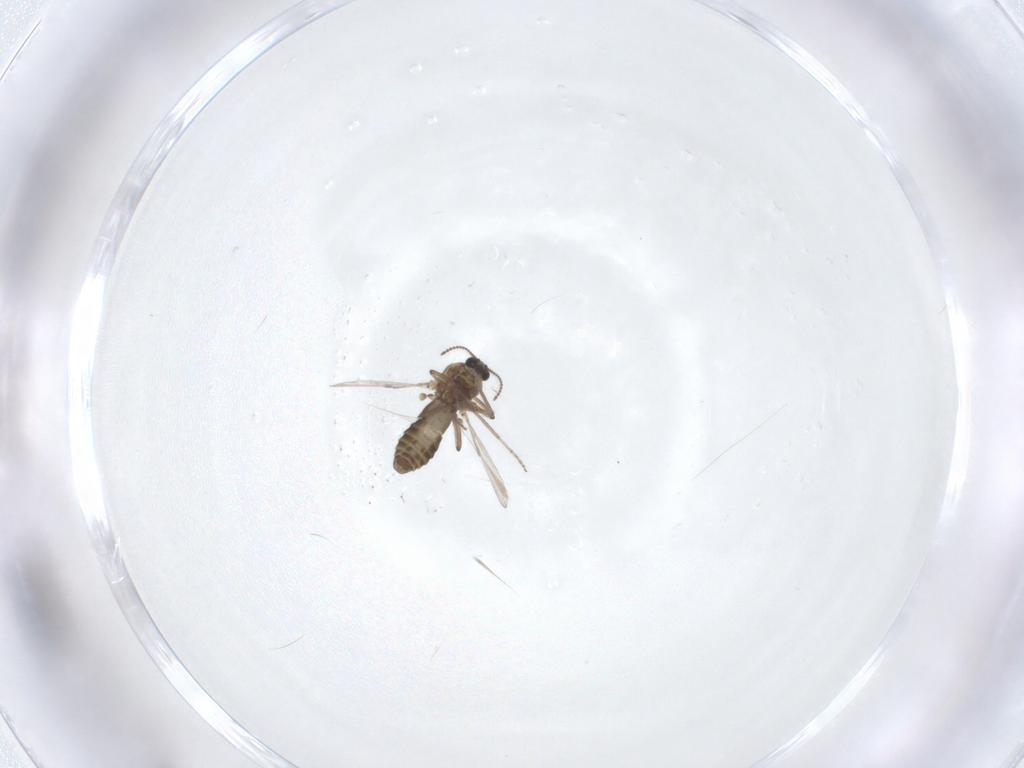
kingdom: Animalia
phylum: Arthropoda
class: Insecta
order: Diptera
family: Ceratopogonidae
